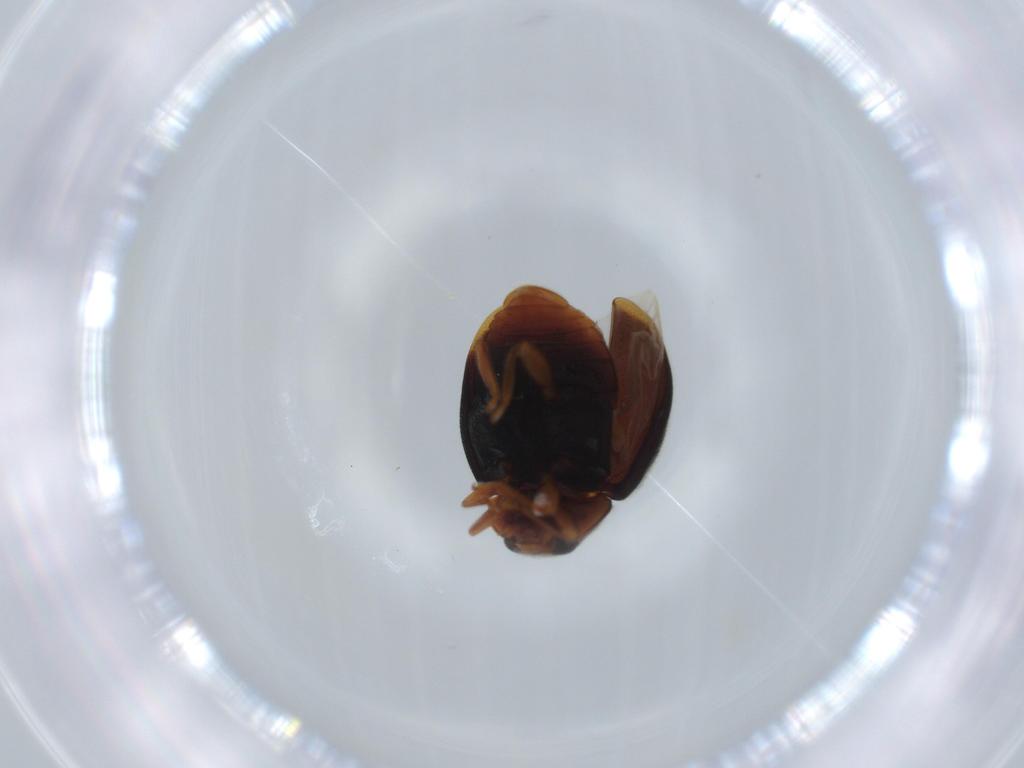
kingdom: Animalia
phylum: Arthropoda
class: Insecta
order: Coleoptera
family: Coccinellidae
